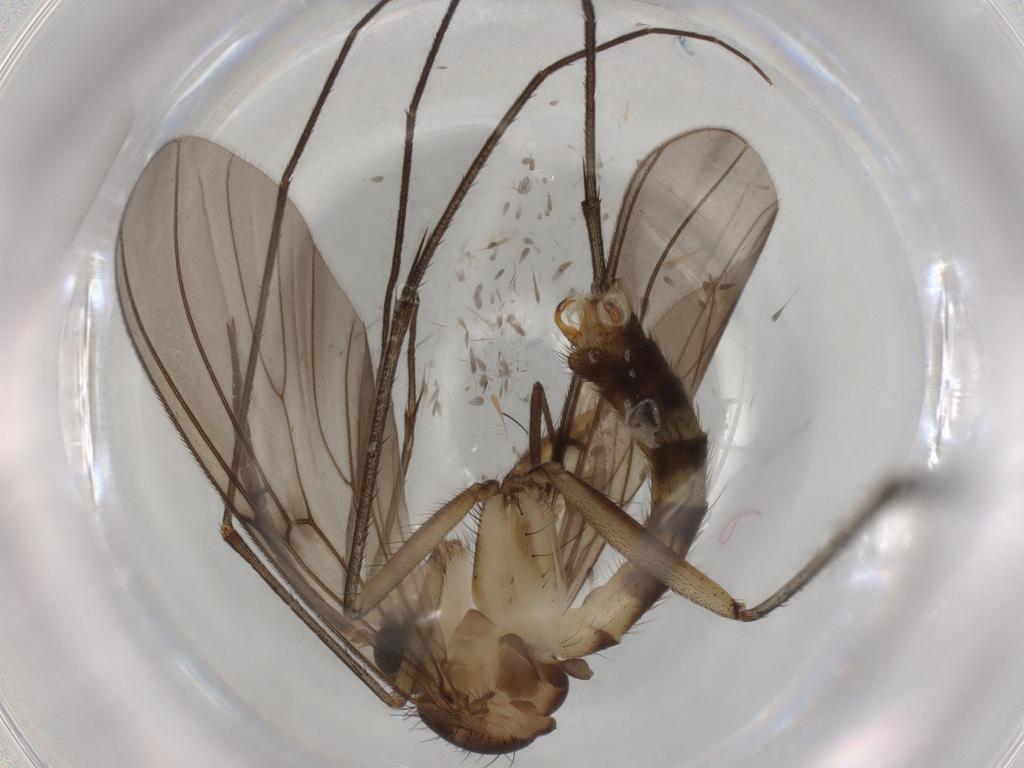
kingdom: Animalia
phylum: Arthropoda
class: Insecta
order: Diptera
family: Mycetophilidae
